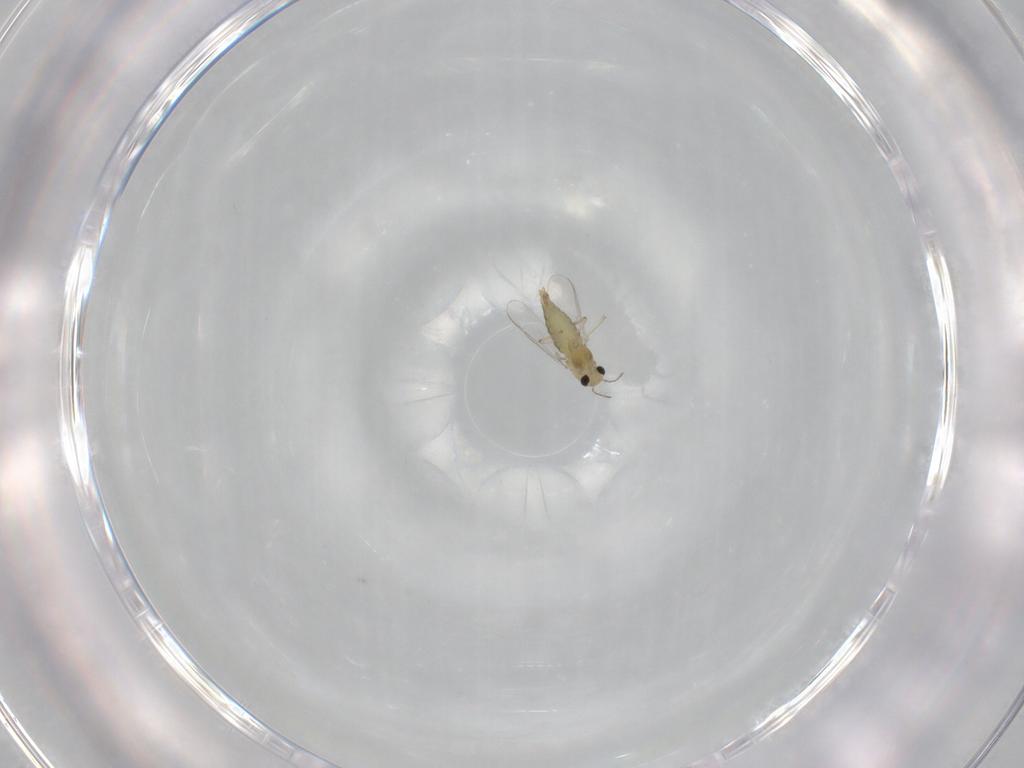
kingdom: Animalia
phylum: Arthropoda
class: Insecta
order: Diptera
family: Chironomidae
